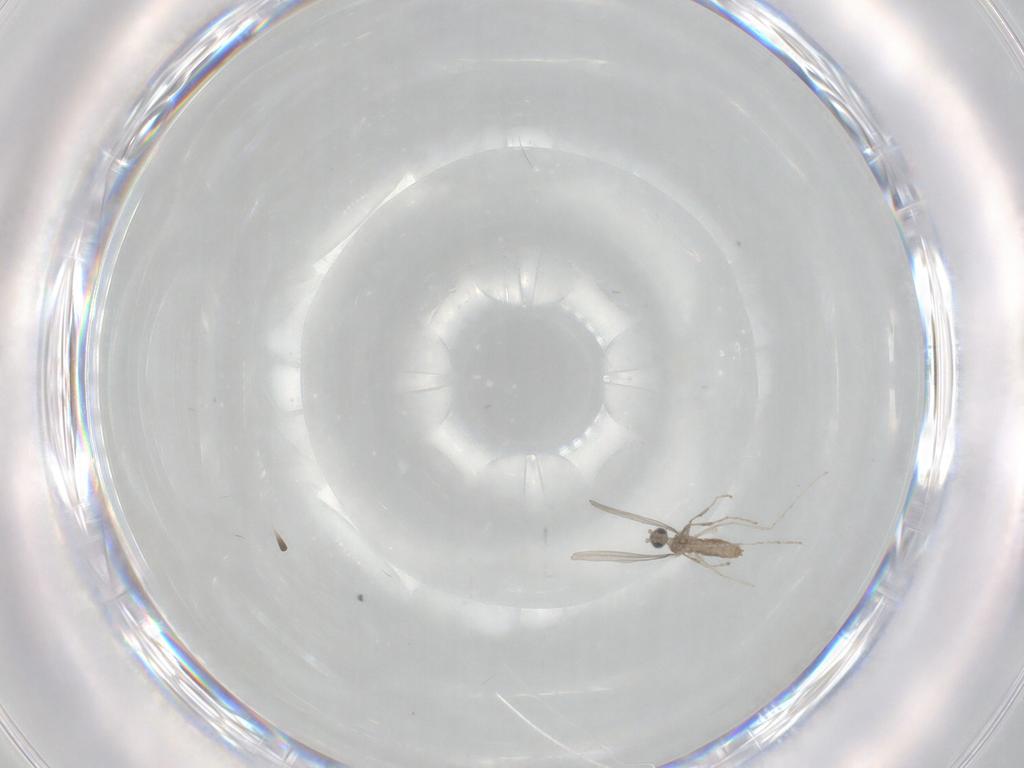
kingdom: Animalia
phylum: Arthropoda
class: Insecta
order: Diptera
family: Cecidomyiidae
